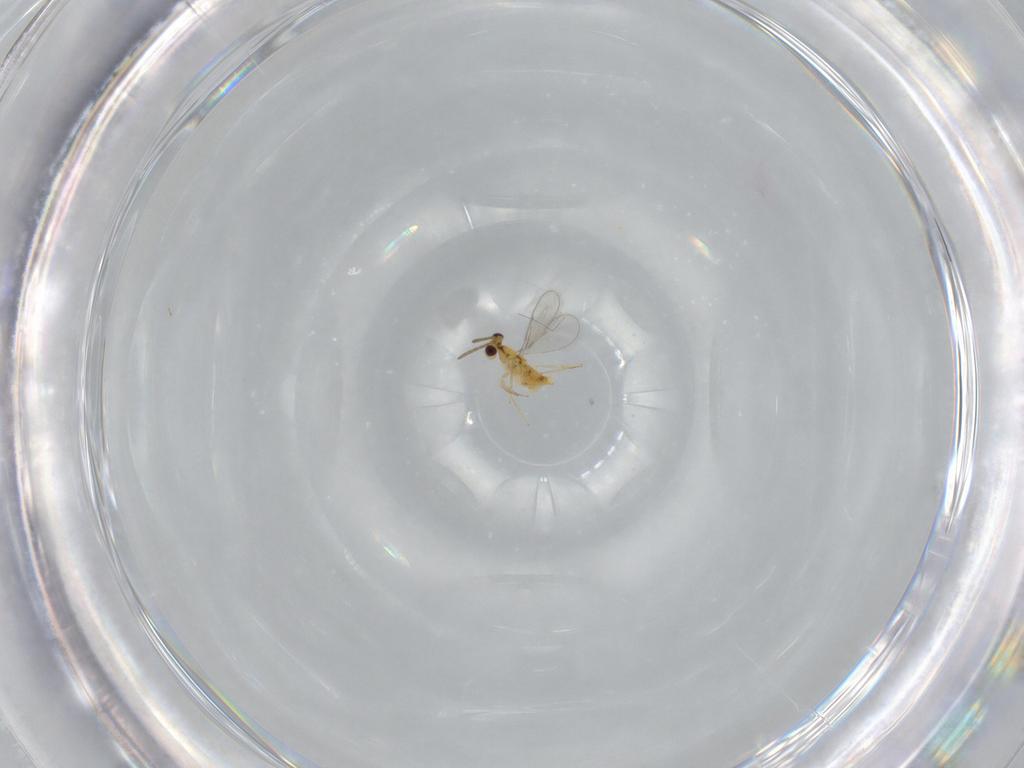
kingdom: Animalia
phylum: Arthropoda
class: Insecta
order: Hymenoptera
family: Aphelinidae
